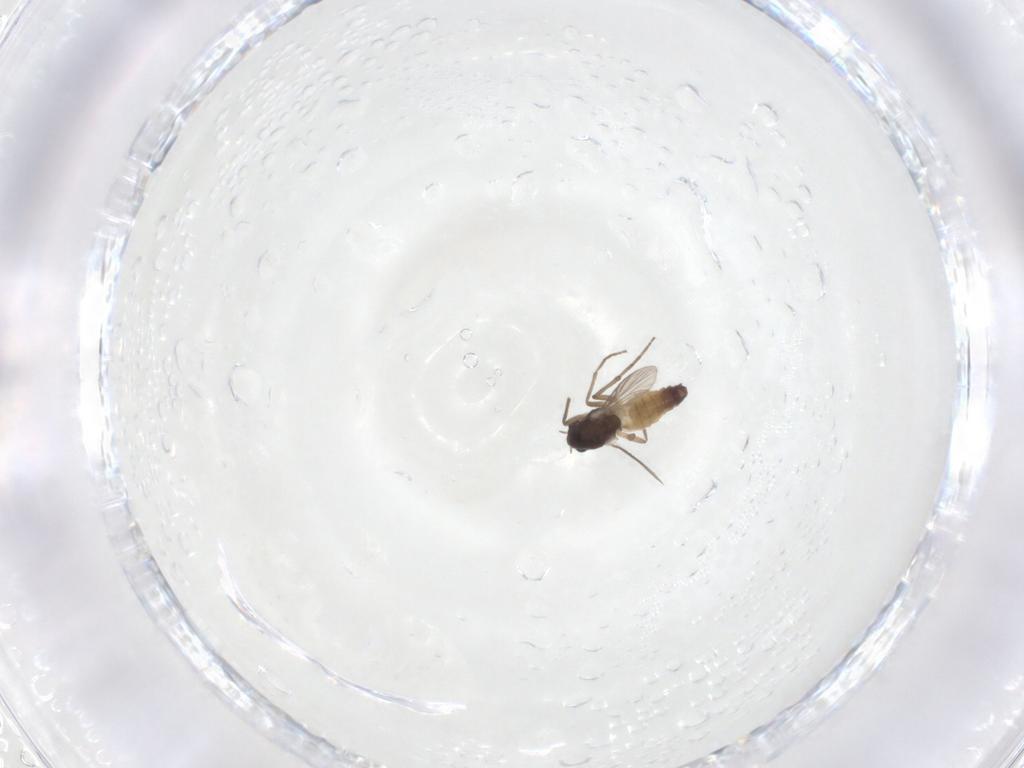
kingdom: Animalia
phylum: Arthropoda
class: Insecta
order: Diptera
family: Chironomidae
